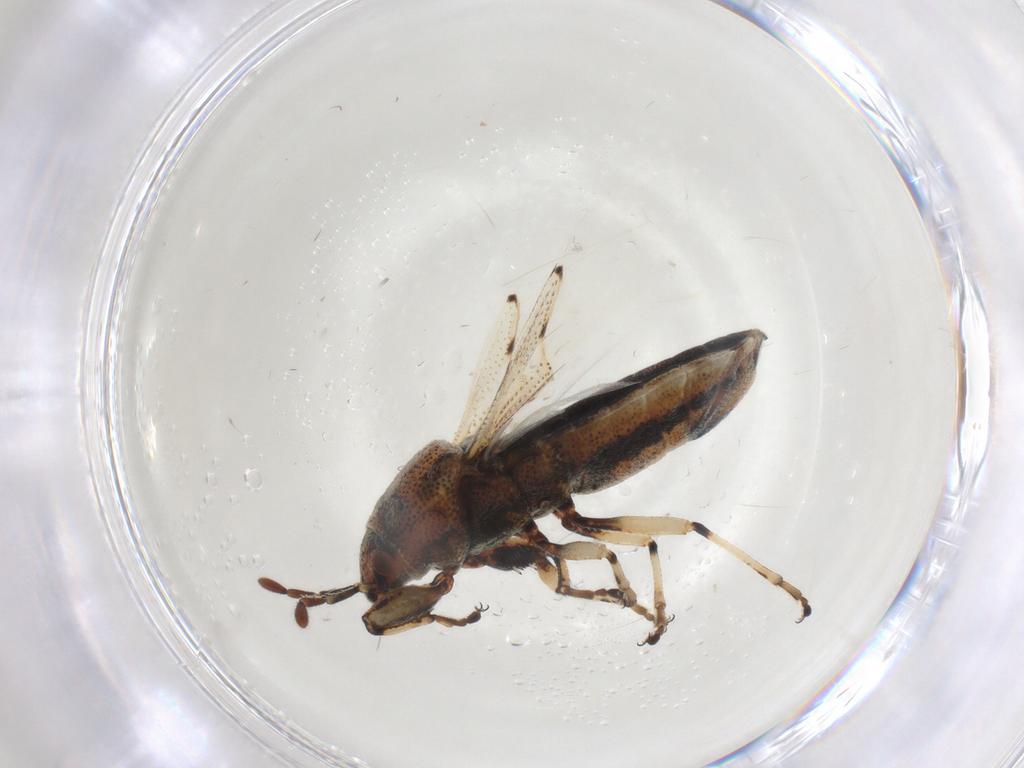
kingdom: Animalia
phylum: Arthropoda
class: Insecta
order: Hemiptera
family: Pachygronthidae
